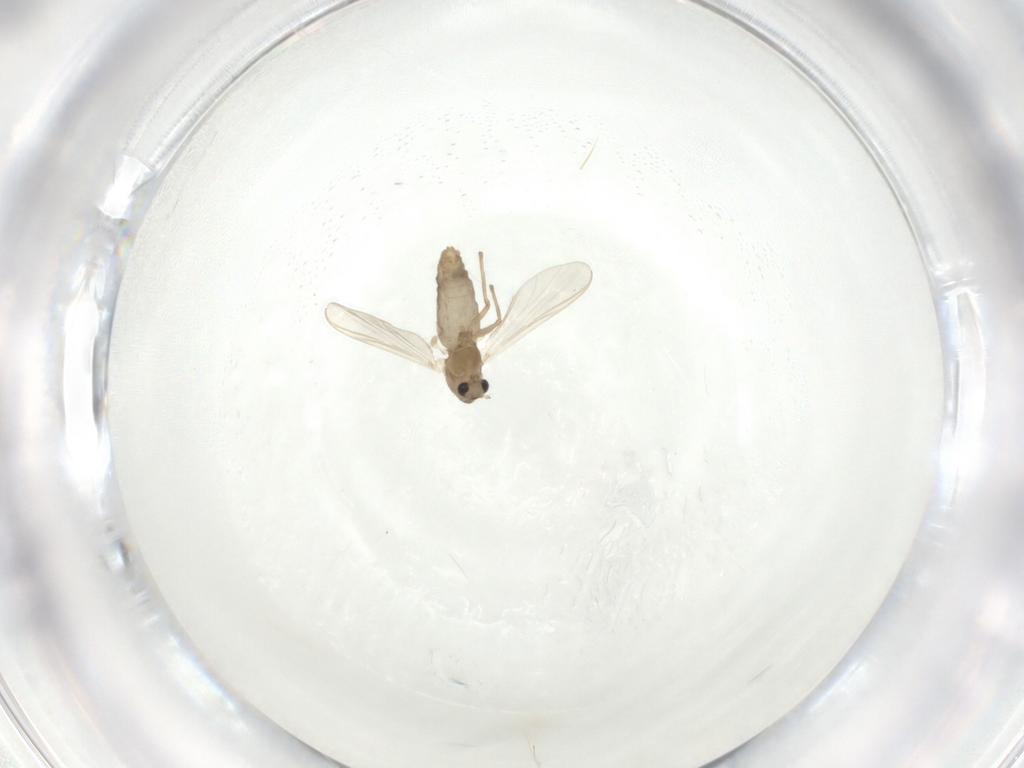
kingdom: Animalia
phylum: Arthropoda
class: Insecta
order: Diptera
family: Chironomidae
